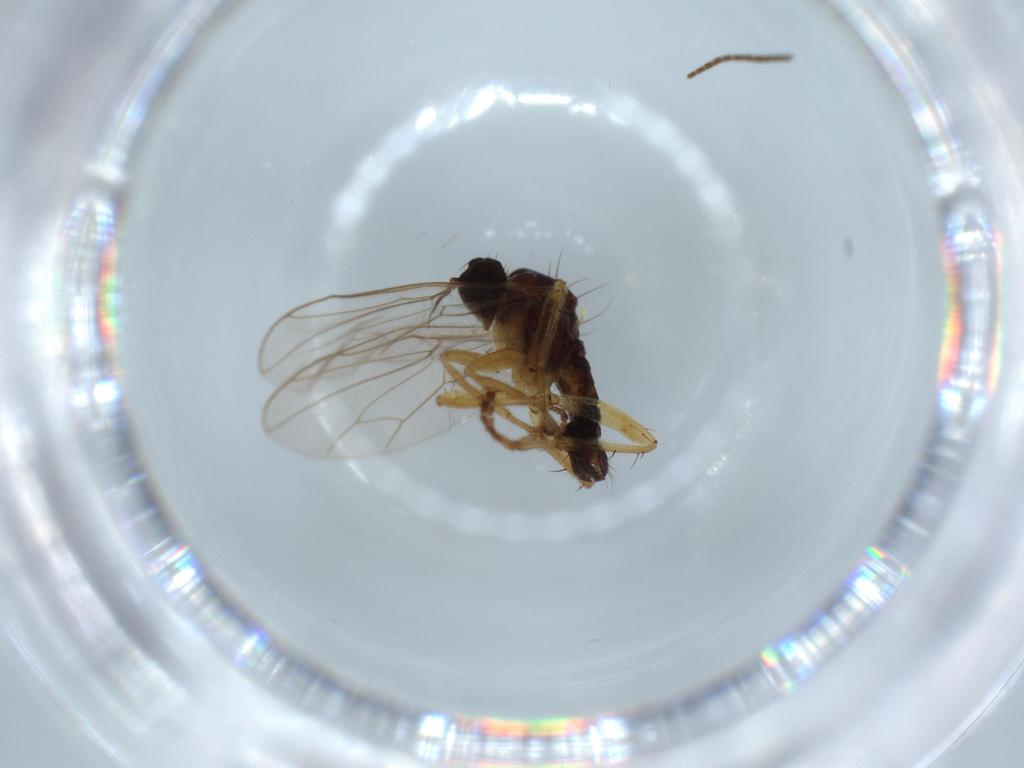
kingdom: Animalia
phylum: Arthropoda
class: Insecta
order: Diptera
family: Hybotidae
